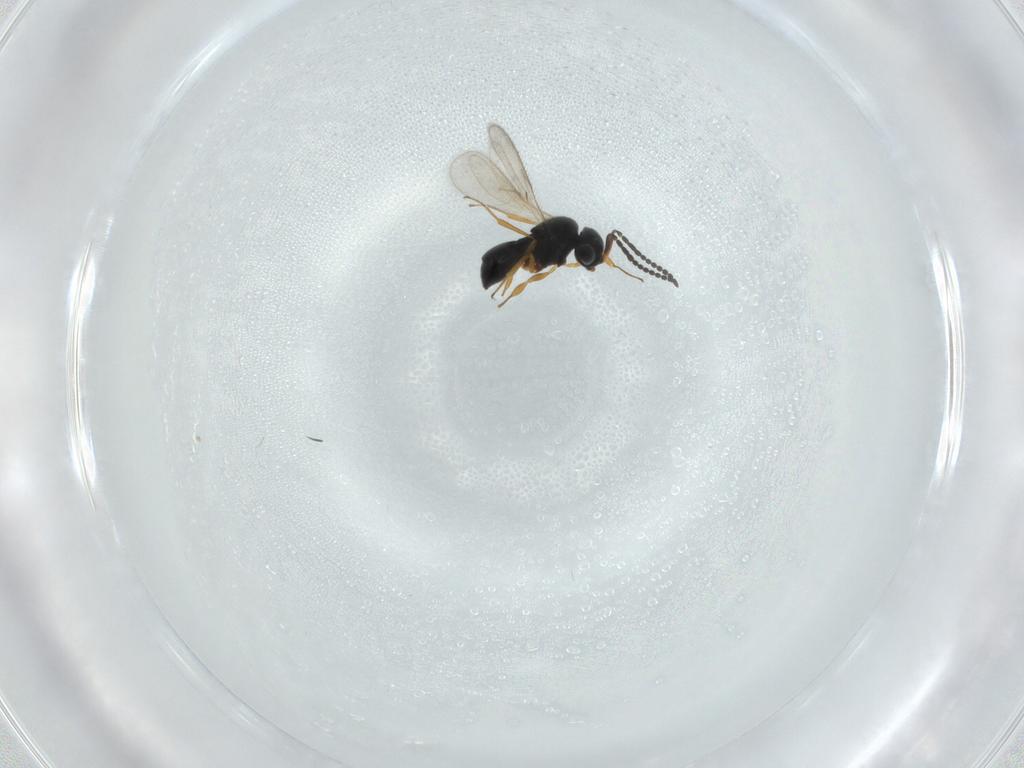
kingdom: Animalia
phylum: Arthropoda
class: Insecta
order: Hymenoptera
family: Scelionidae
